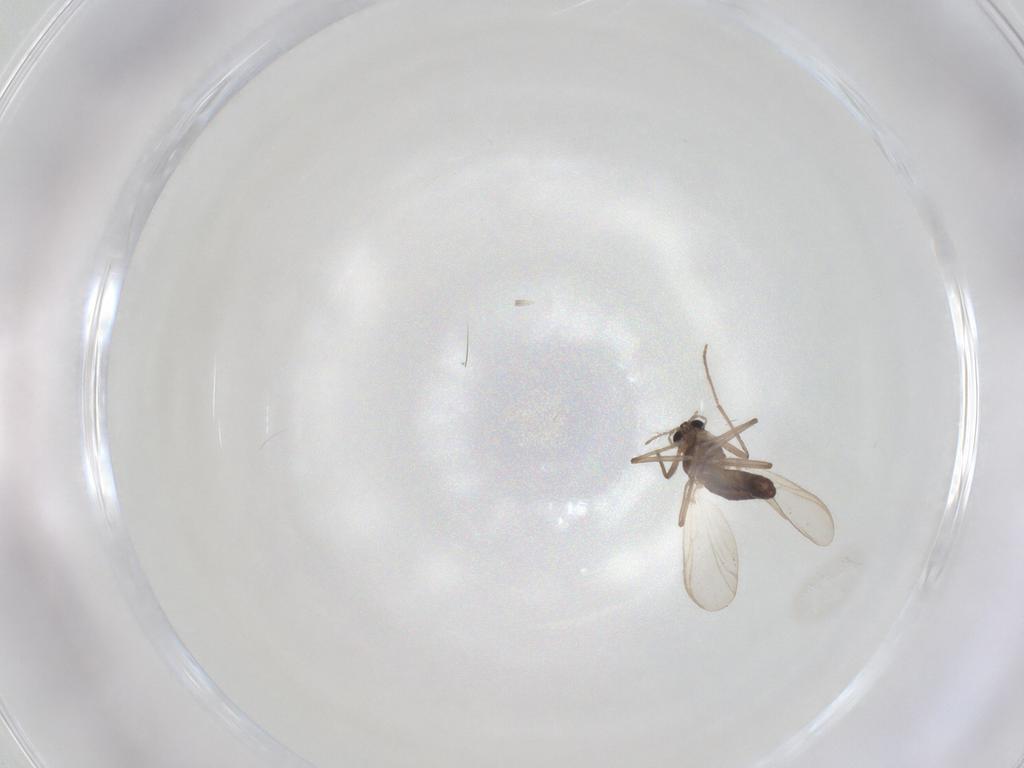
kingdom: Animalia
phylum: Arthropoda
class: Insecta
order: Diptera
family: Chironomidae
